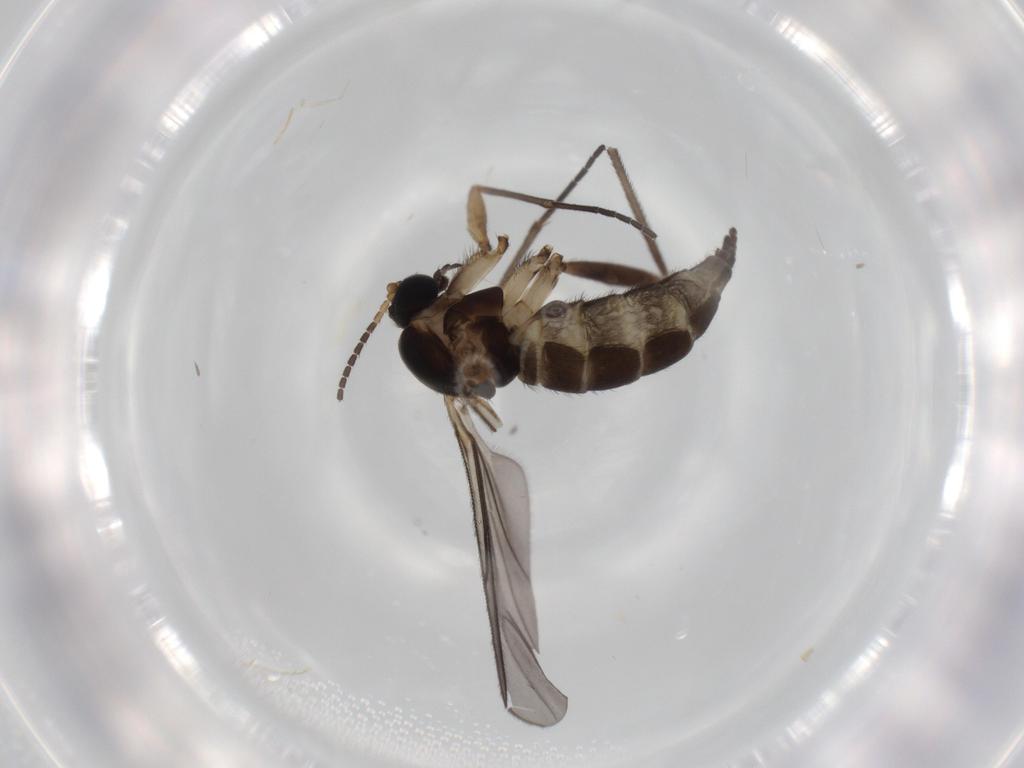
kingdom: Animalia
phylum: Arthropoda
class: Insecta
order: Diptera
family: Sciaridae
